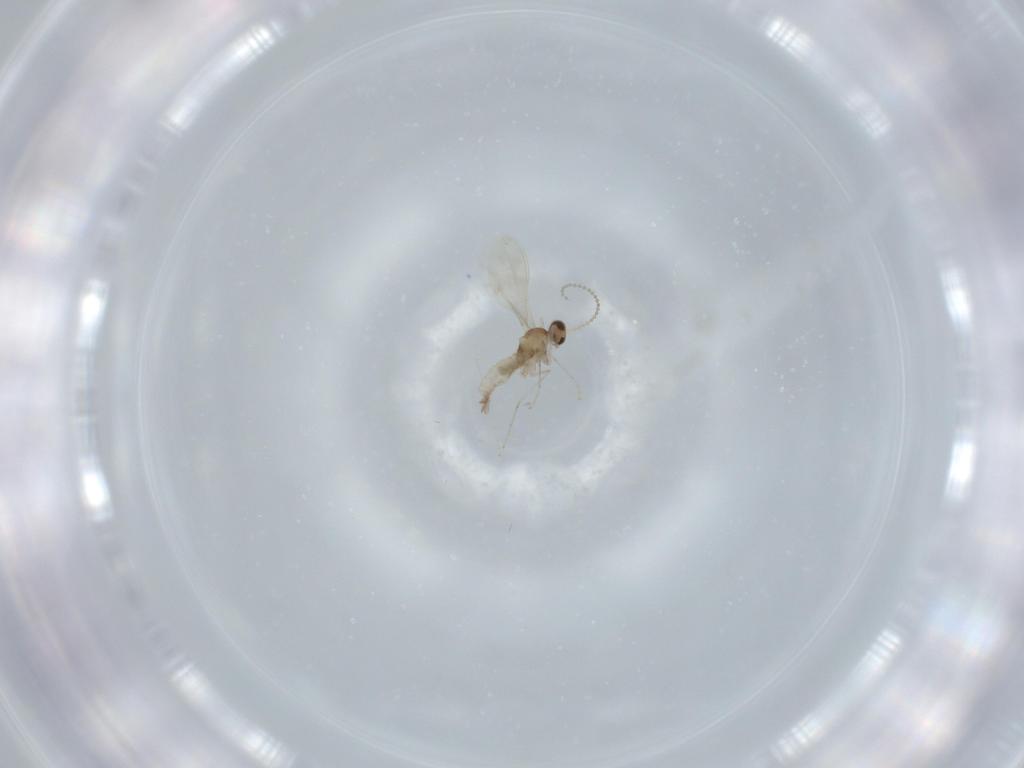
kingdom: Animalia
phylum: Arthropoda
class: Insecta
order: Diptera
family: Cecidomyiidae
